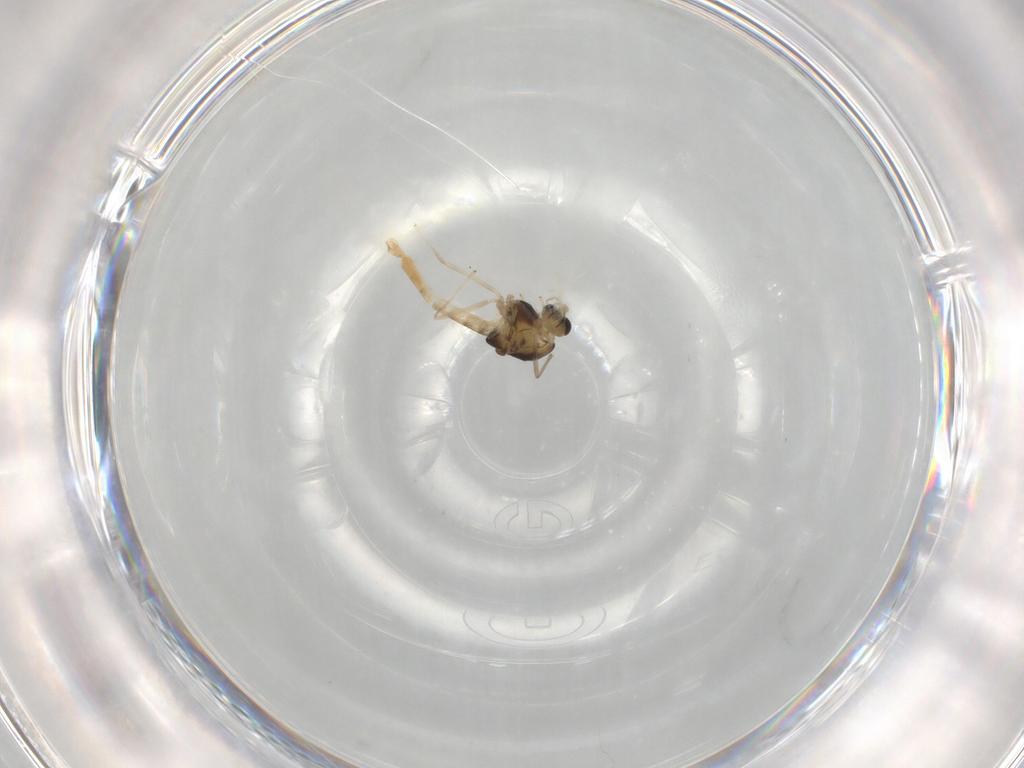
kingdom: Animalia
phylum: Arthropoda
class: Insecta
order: Diptera
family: Chironomidae
